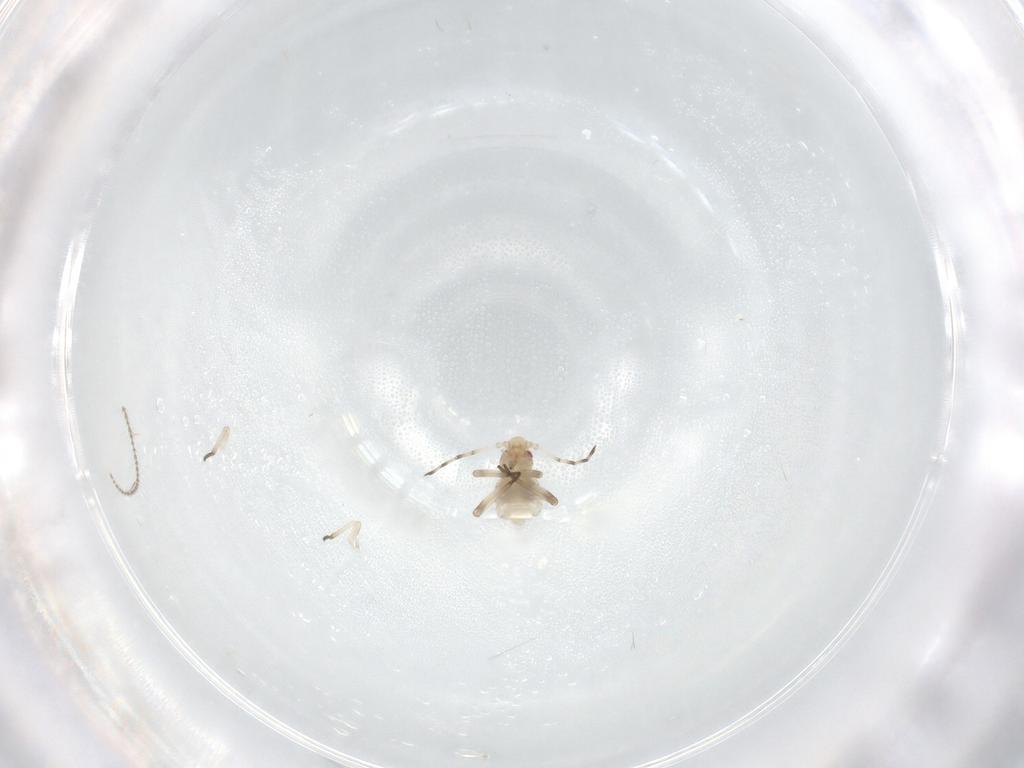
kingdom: Animalia
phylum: Arthropoda
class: Insecta
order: Hemiptera
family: Aphididae
